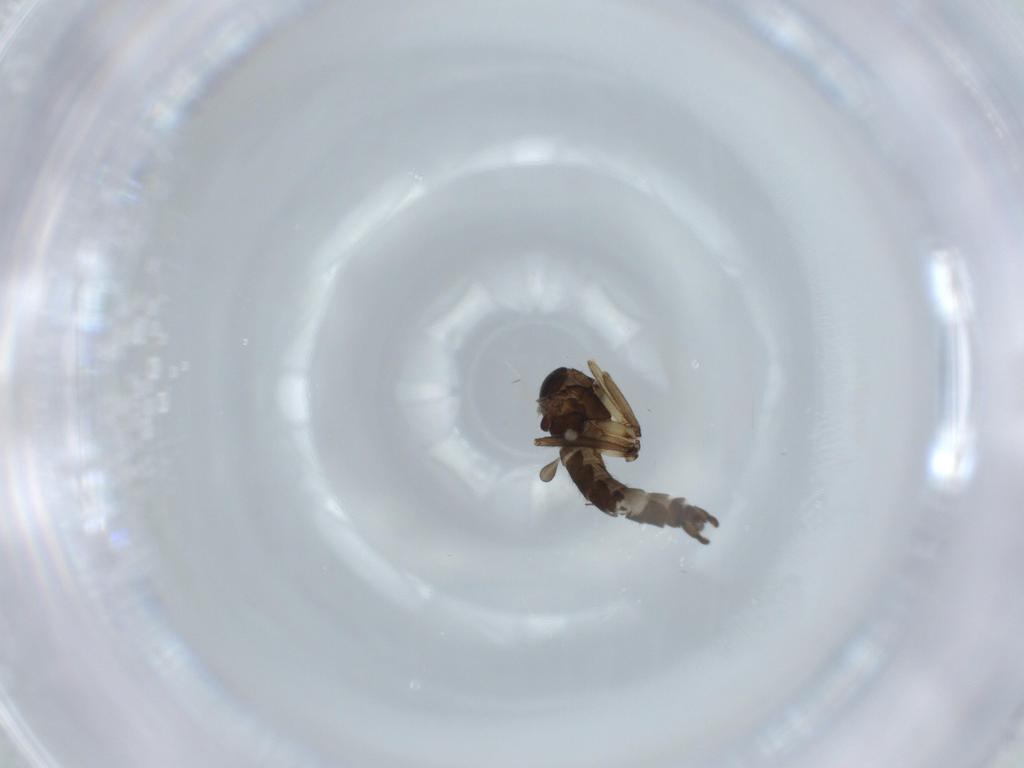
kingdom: Animalia
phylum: Arthropoda
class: Insecta
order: Diptera
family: Sciaridae
